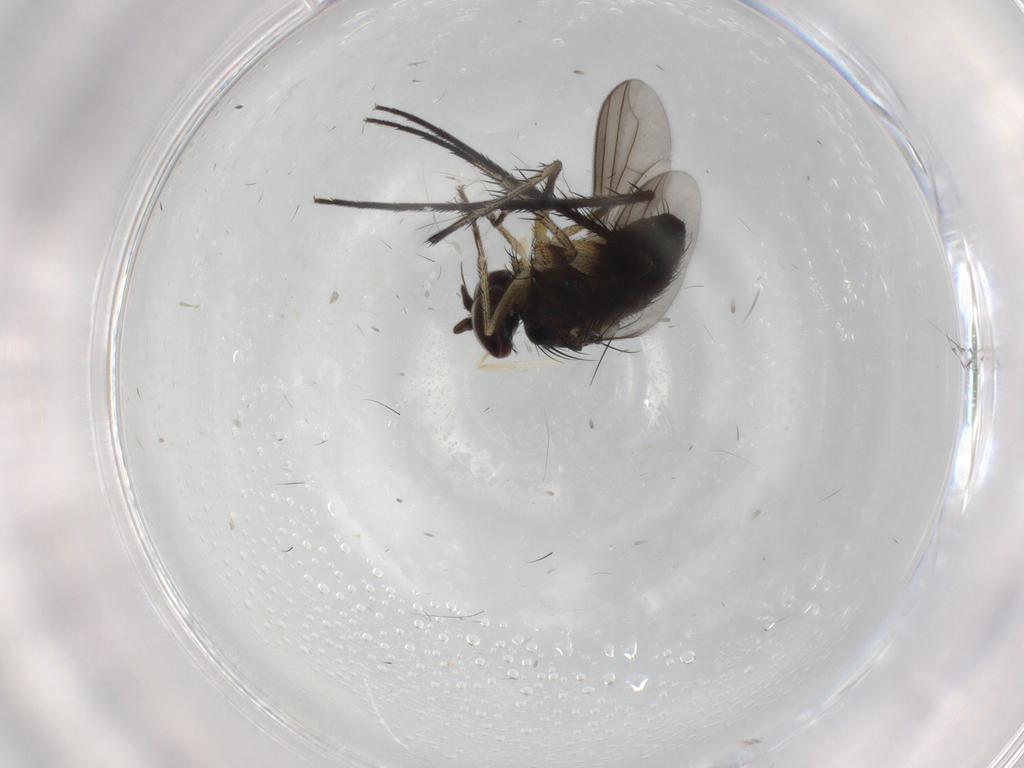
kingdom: Animalia
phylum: Arthropoda
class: Insecta
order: Diptera
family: Dolichopodidae
